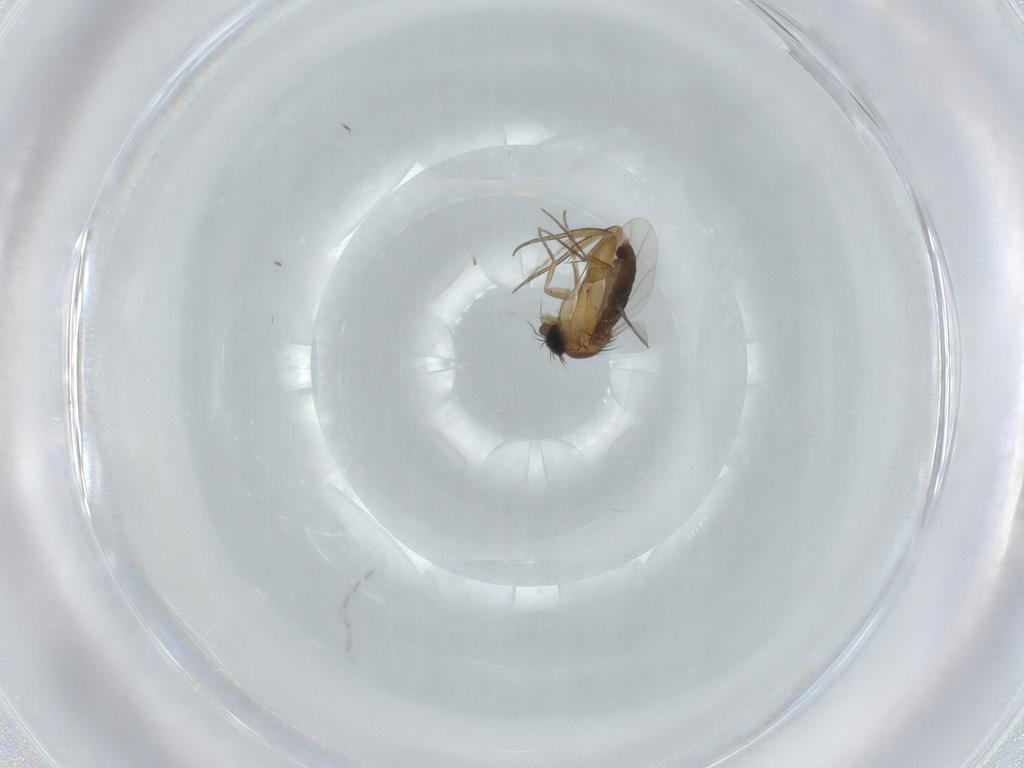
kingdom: Animalia
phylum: Arthropoda
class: Insecta
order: Diptera
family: Phoridae
